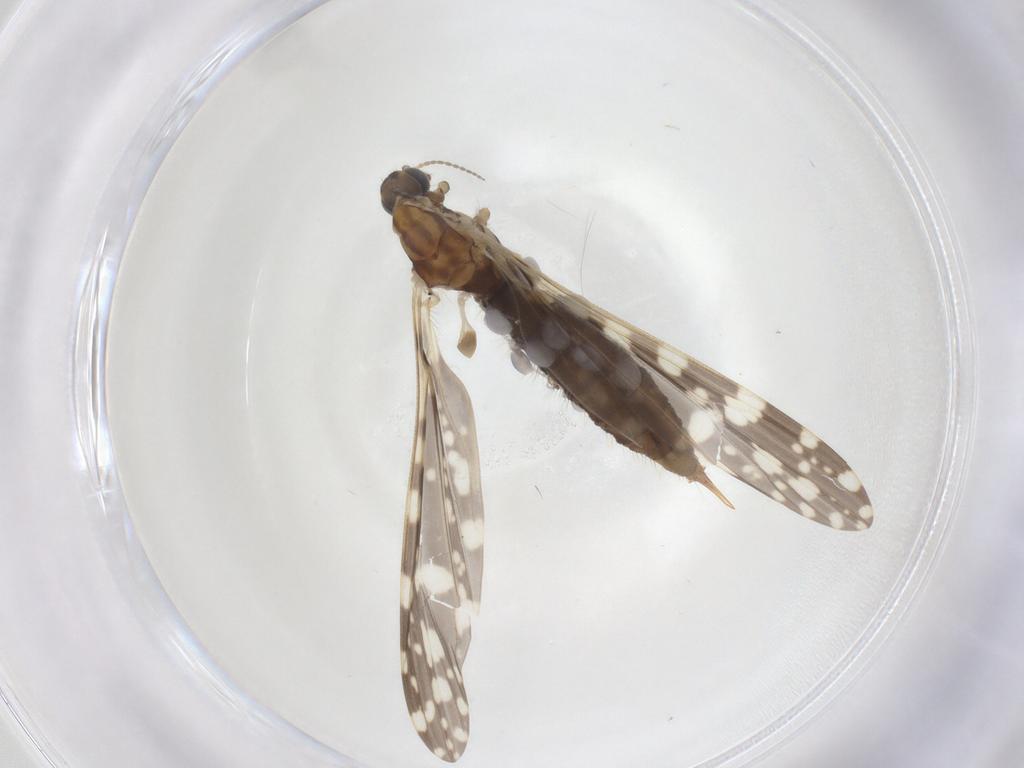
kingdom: Animalia
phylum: Arthropoda
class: Insecta
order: Diptera
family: Limoniidae
